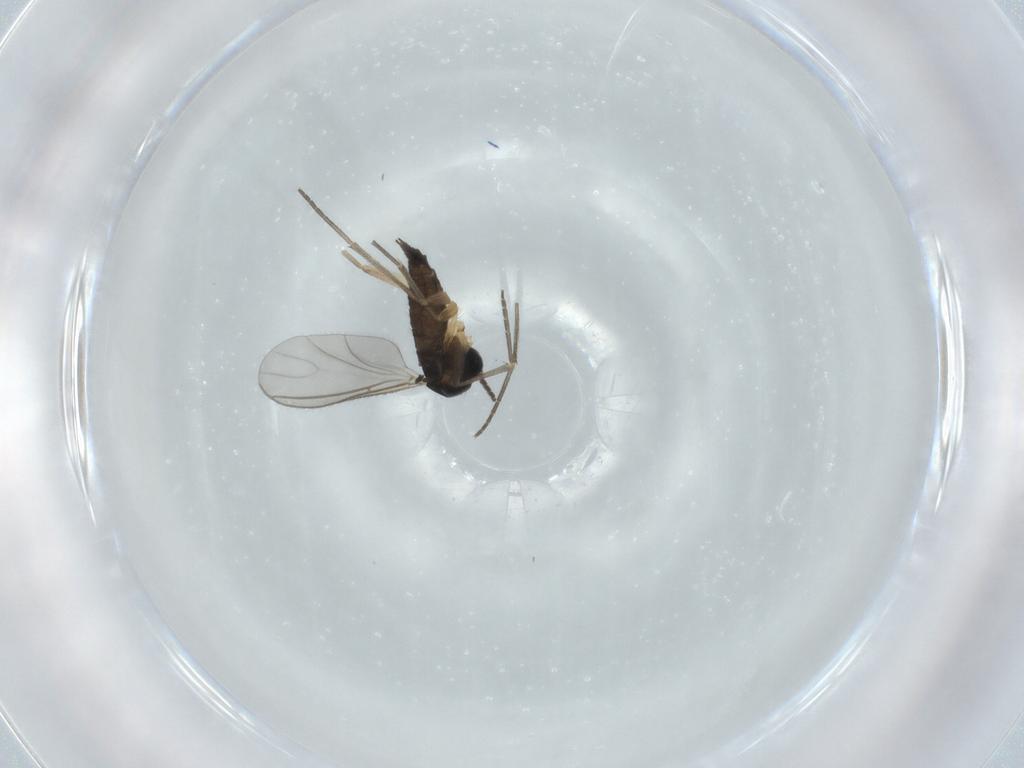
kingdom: Animalia
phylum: Arthropoda
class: Insecta
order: Diptera
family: Sciaridae
